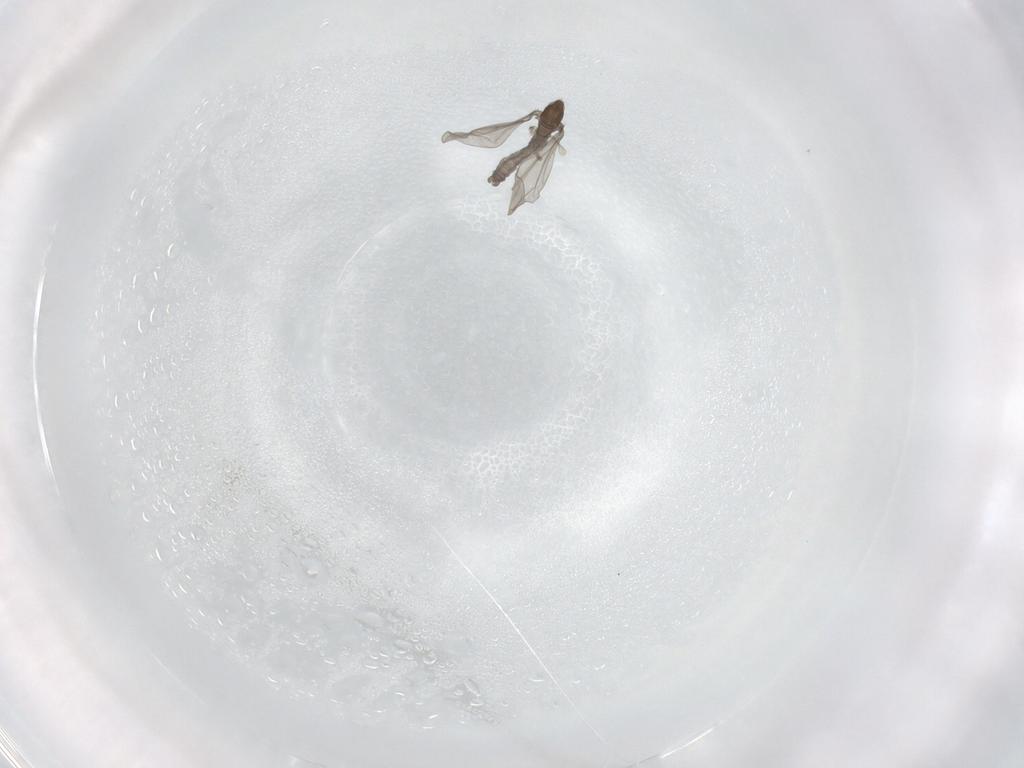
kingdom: Animalia
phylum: Arthropoda
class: Insecta
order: Diptera
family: Cecidomyiidae
